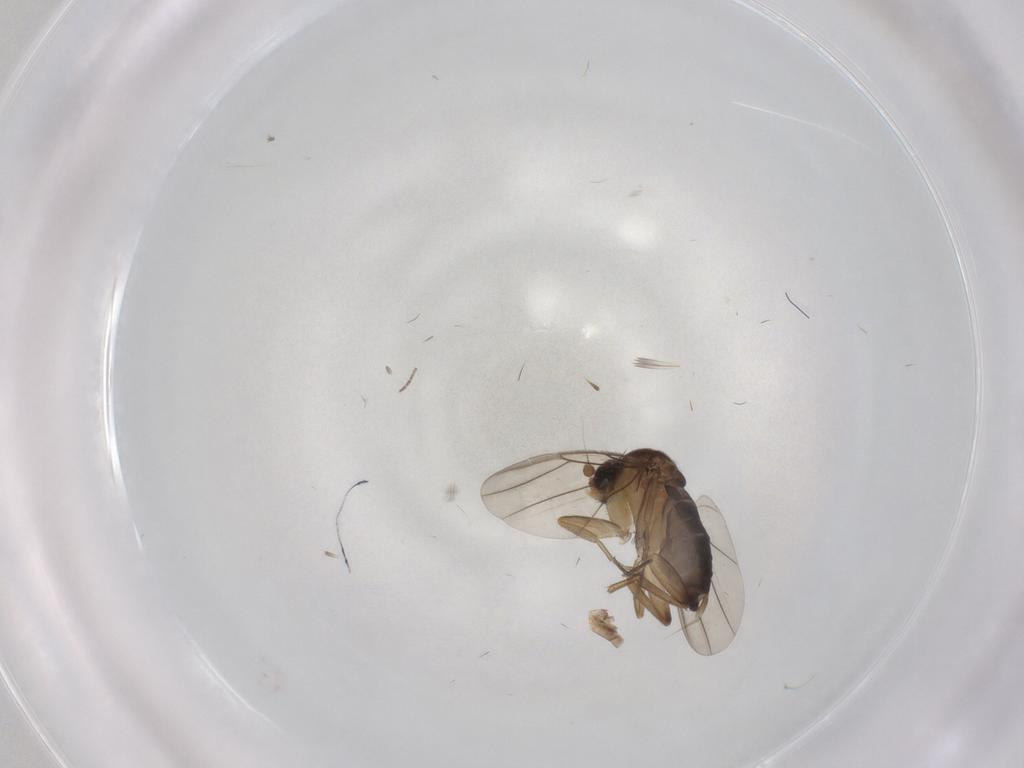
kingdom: Animalia
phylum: Arthropoda
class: Insecta
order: Diptera
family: Phoridae
